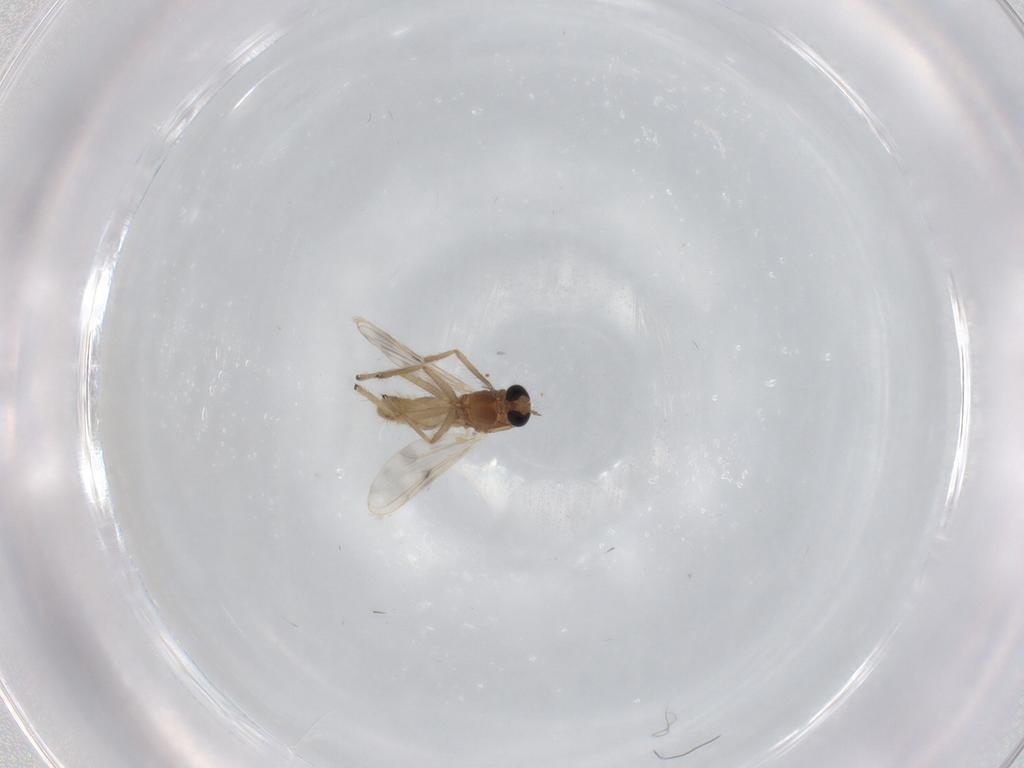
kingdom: Animalia
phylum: Arthropoda
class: Insecta
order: Diptera
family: Chironomidae
